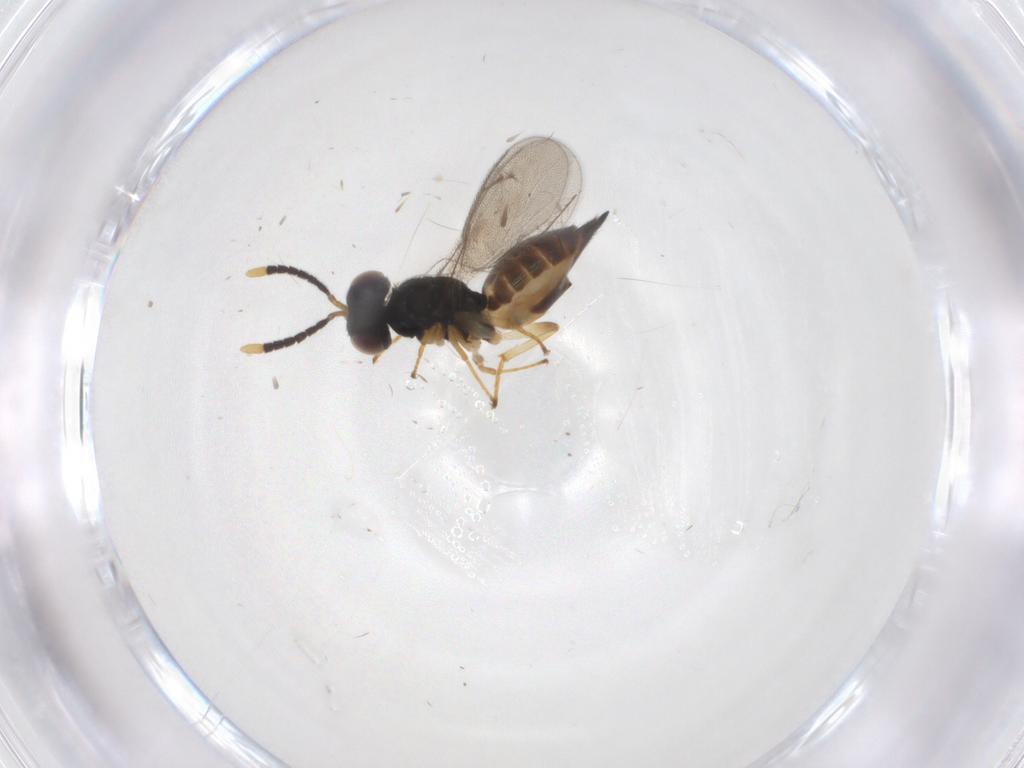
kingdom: Animalia
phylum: Arthropoda
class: Insecta
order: Hymenoptera
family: Pteromalidae
